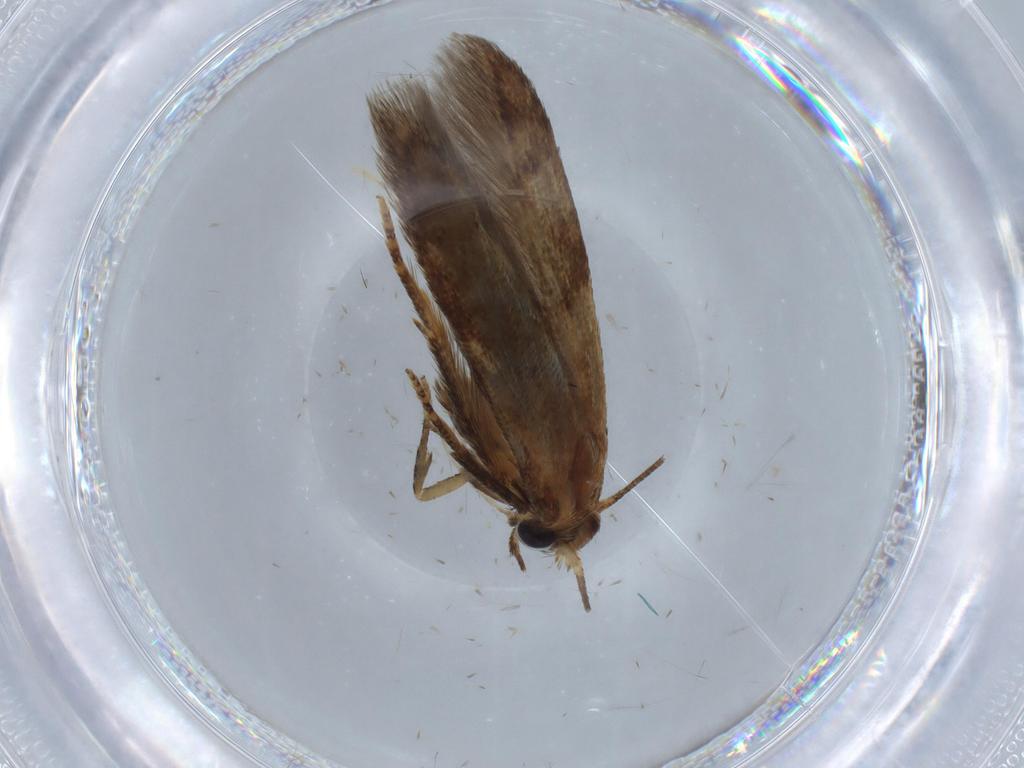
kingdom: Animalia
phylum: Arthropoda
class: Insecta
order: Lepidoptera
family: Blastobasidae
